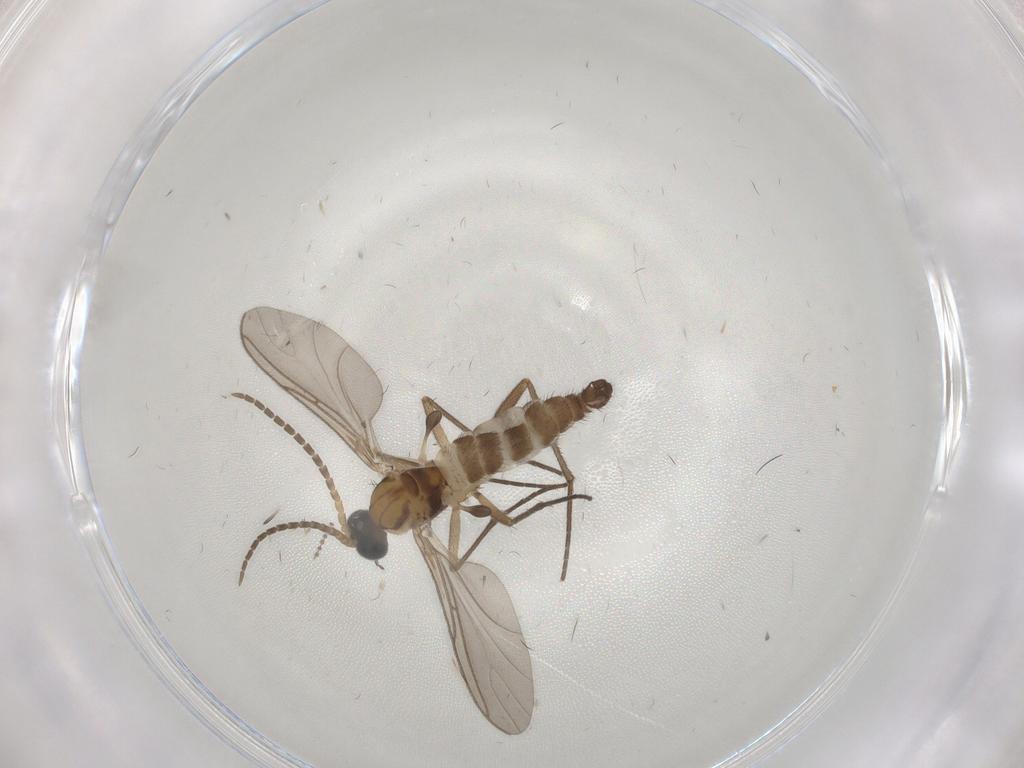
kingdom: Animalia
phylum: Arthropoda
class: Insecta
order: Diptera
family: Sciaridae
